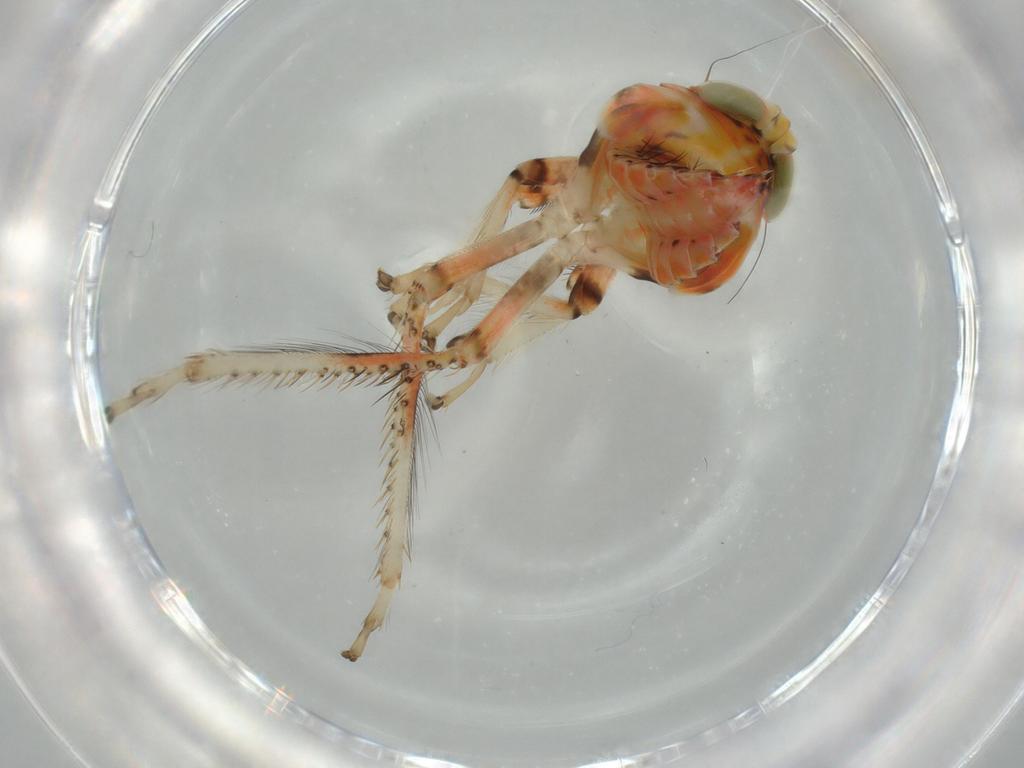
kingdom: Animalia
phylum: Arthropoda
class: Insecta
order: Hemiptera
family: Cicadellidae
